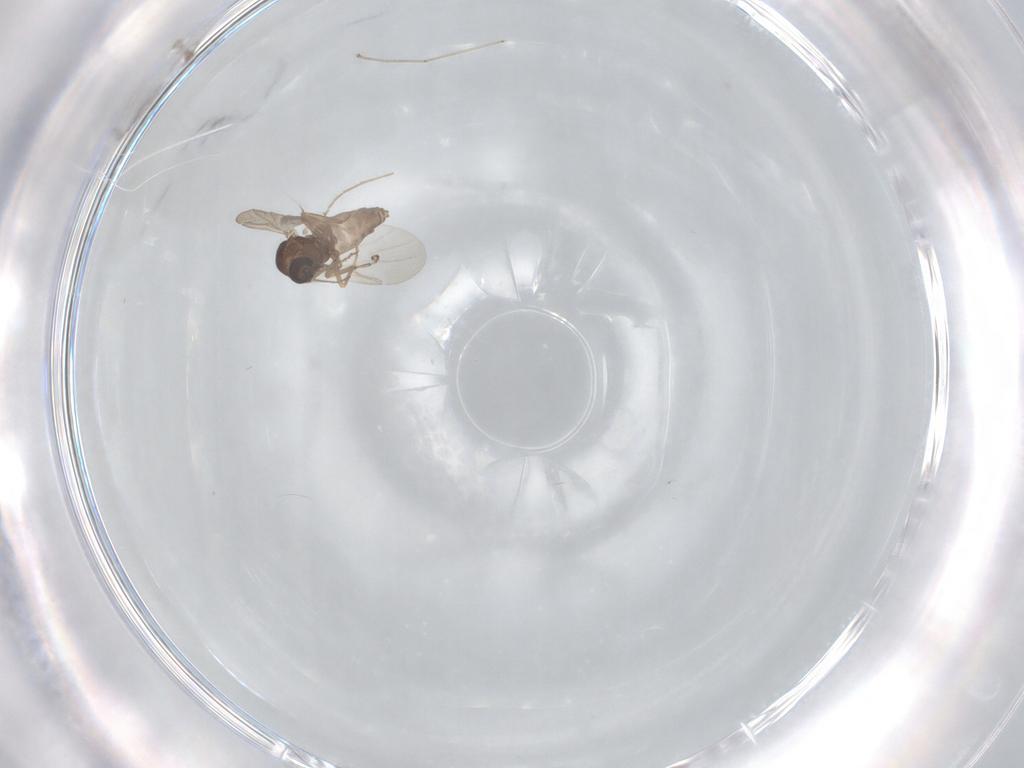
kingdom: Animalia
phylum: Arthropoda
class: Insecta
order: Diptera
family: Ceratopogonidae
